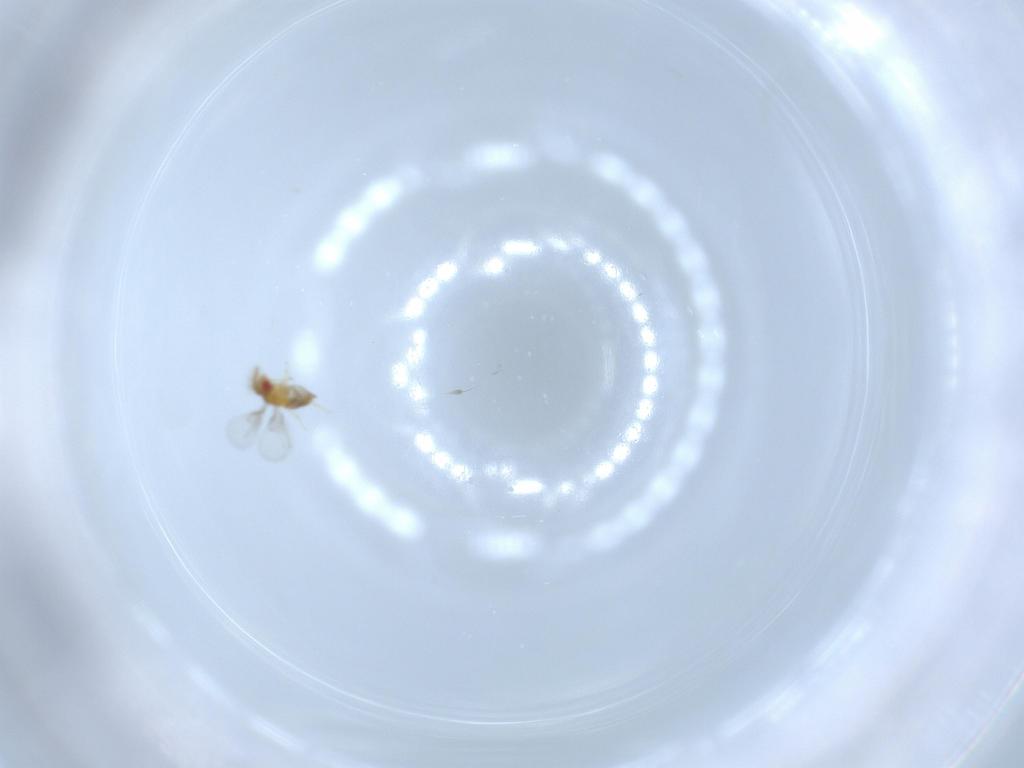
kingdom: Animalia
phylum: Arthropoda
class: Insecta
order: Hymenoptera
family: Trichogrammatidae
